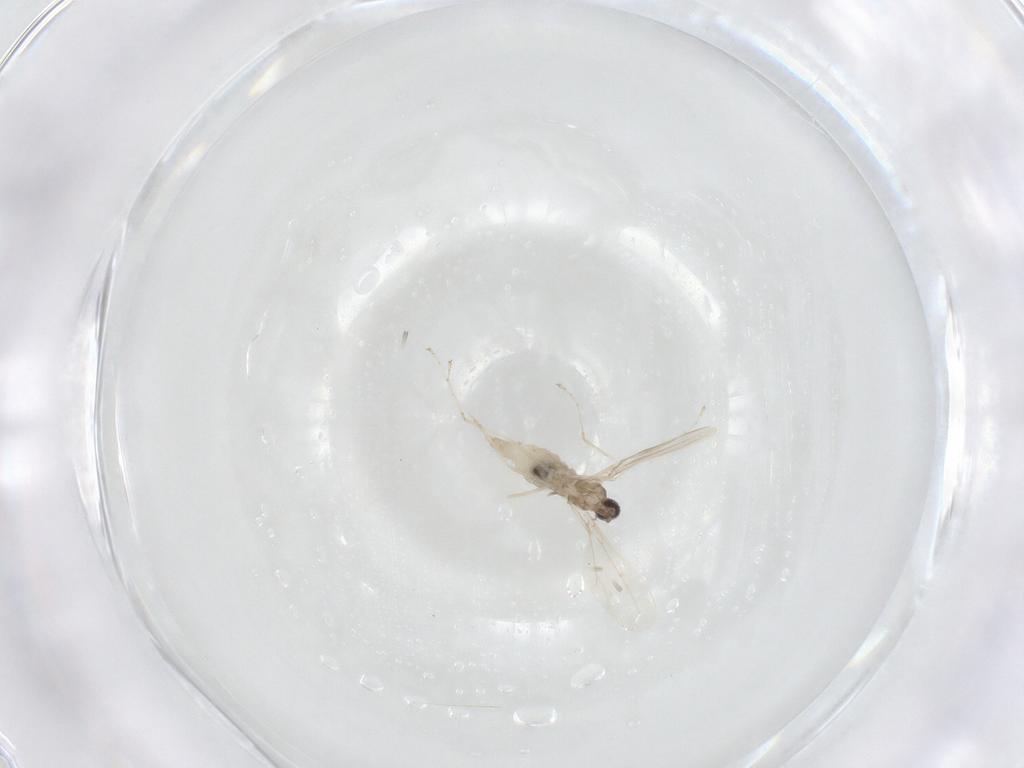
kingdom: Animalia
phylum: Arthropoda
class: Insecta
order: Diptera
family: Cecidomyiidae
